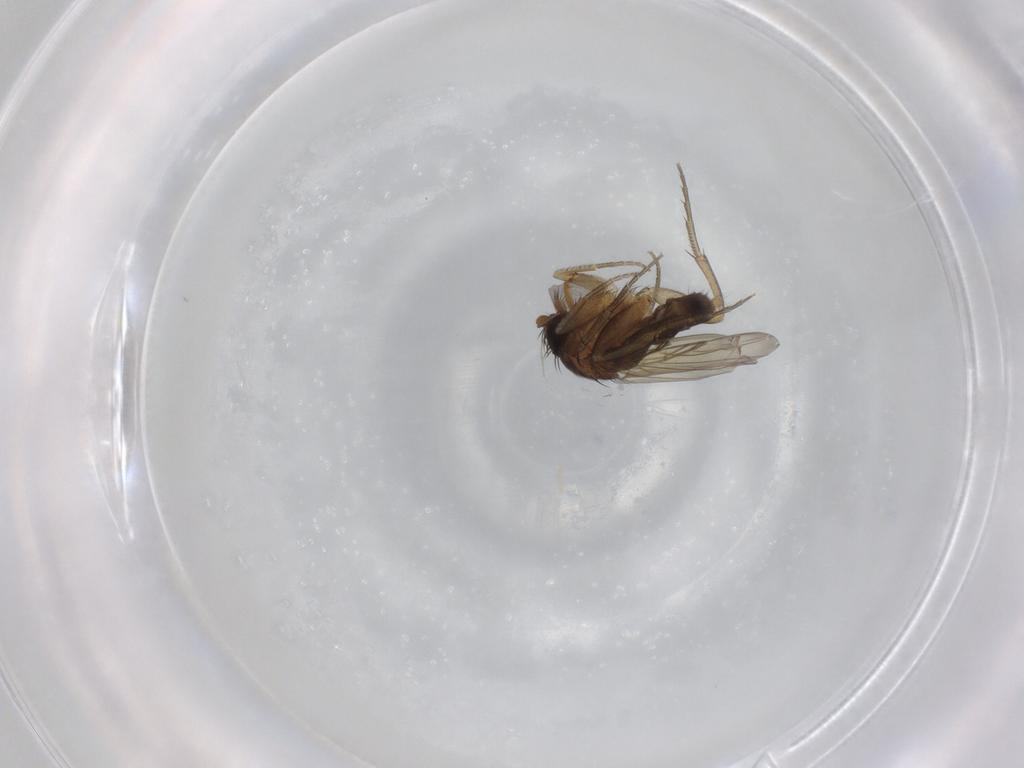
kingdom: Animalia
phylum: Arthropoda
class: Insecta
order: Diptera
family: Phoridae
